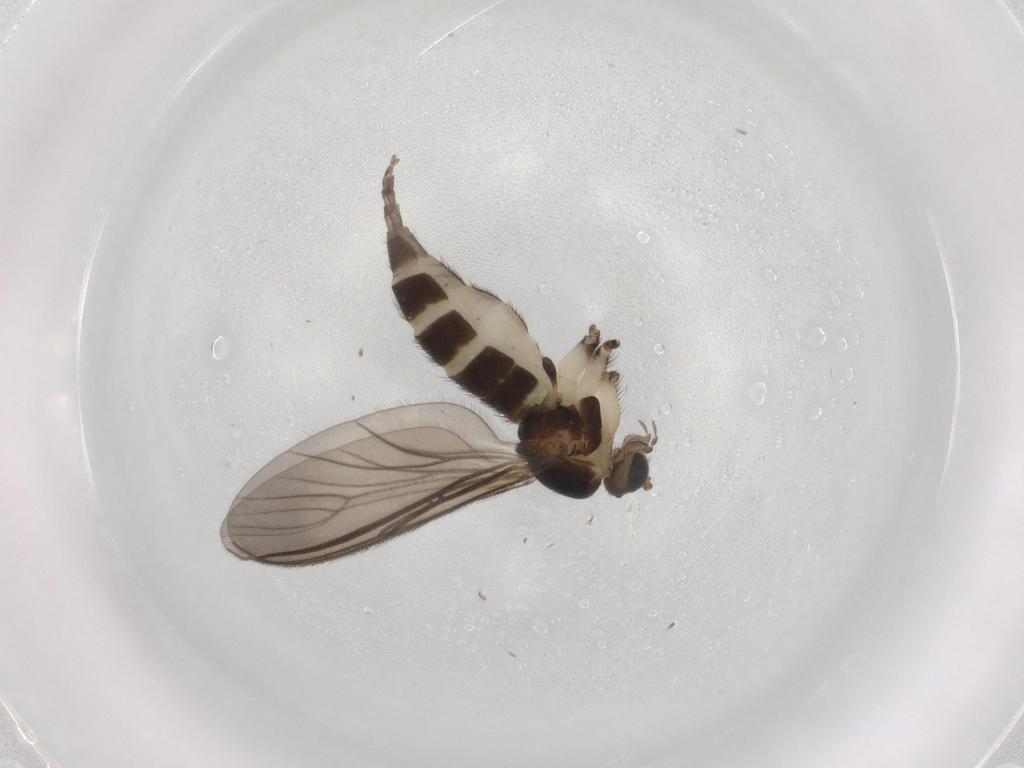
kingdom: Animalia
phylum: Arthropoda
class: Insecta
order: Diptera
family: Sciaridae
